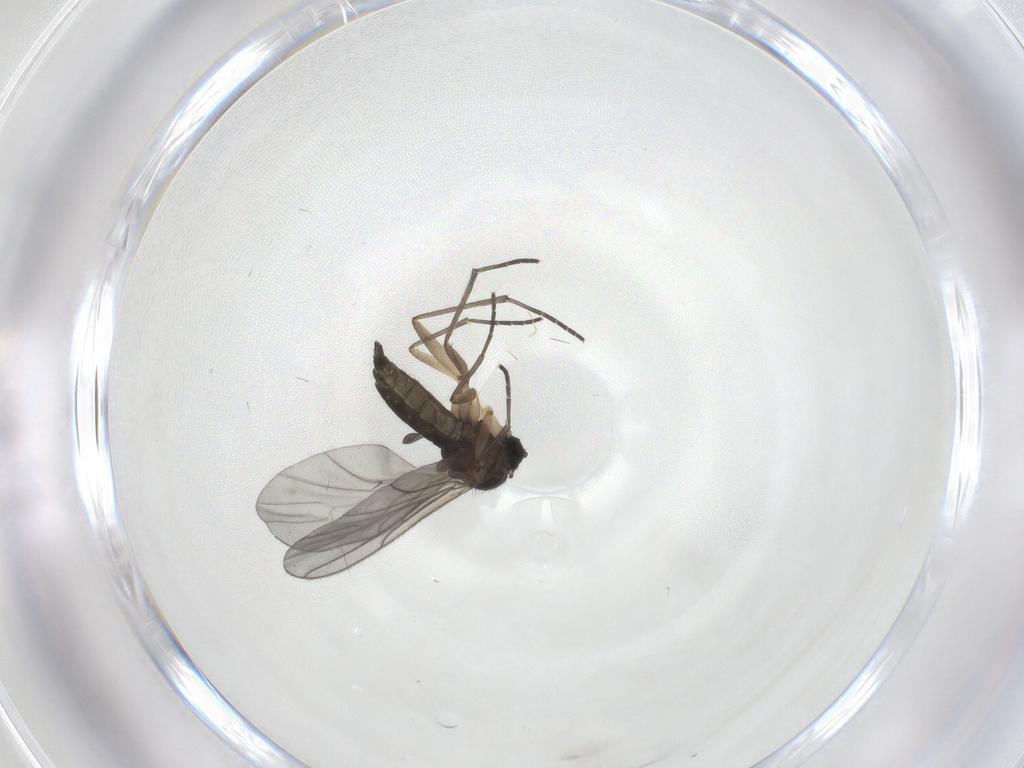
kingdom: Animalia
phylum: Arthropoda
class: Insecta
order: Diptera
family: Sciaridae
